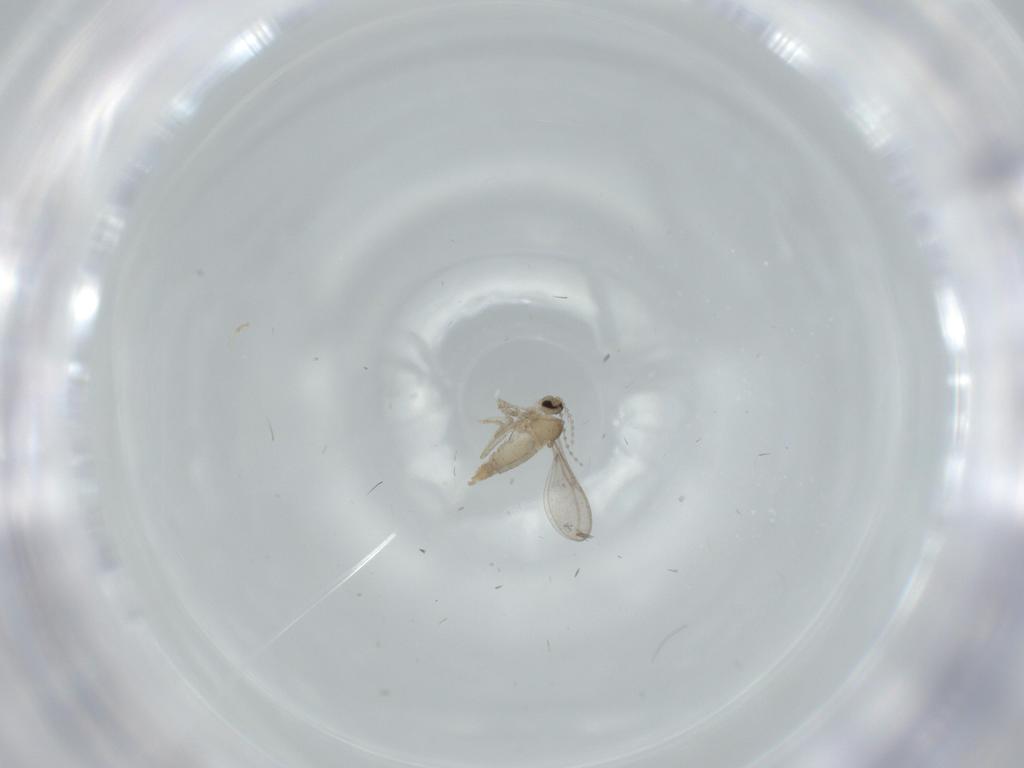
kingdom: Animalia
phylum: Arthropoda
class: Insecta
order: Diptera
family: Cecidomyiidae
